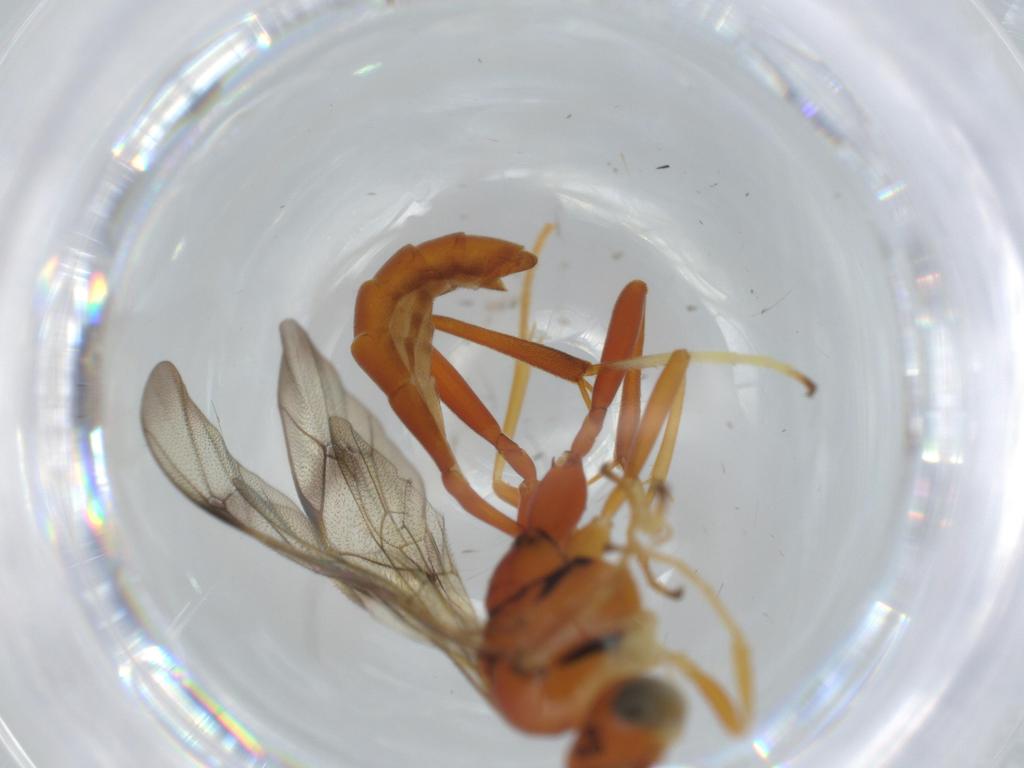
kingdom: Animalia
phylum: Arthropoda
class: Insecta
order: Hymenoptera
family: Scelionidae
